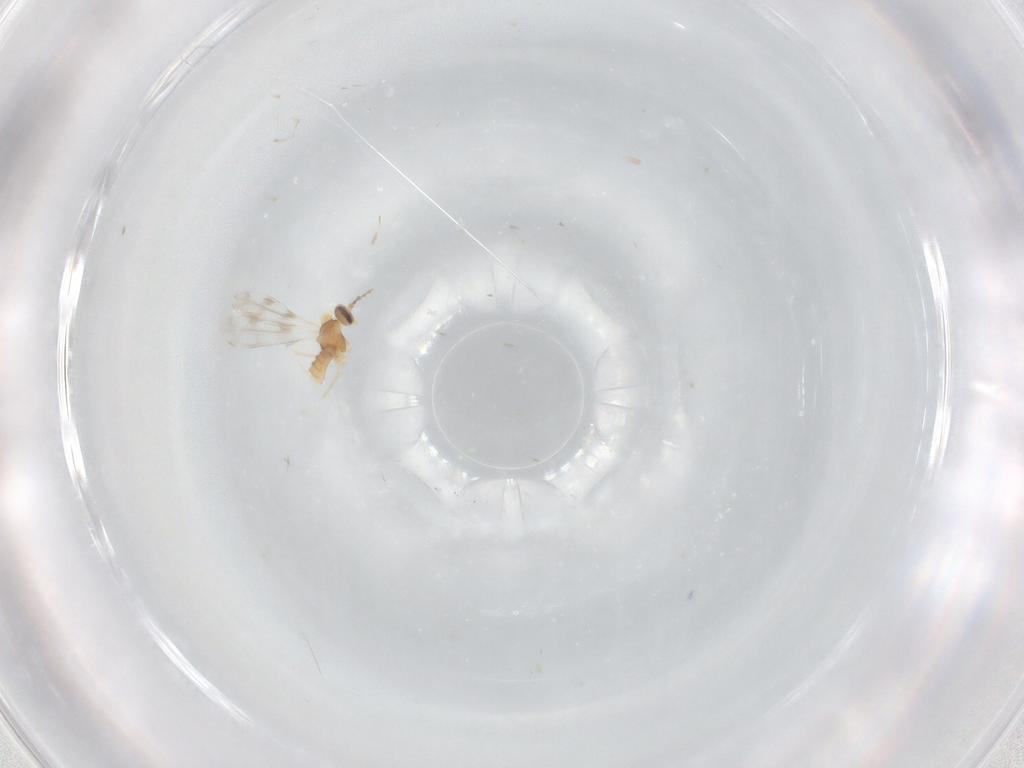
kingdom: Animalia
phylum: Arthropoda
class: Insecta
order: Diptera
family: Cecidomyiidae
